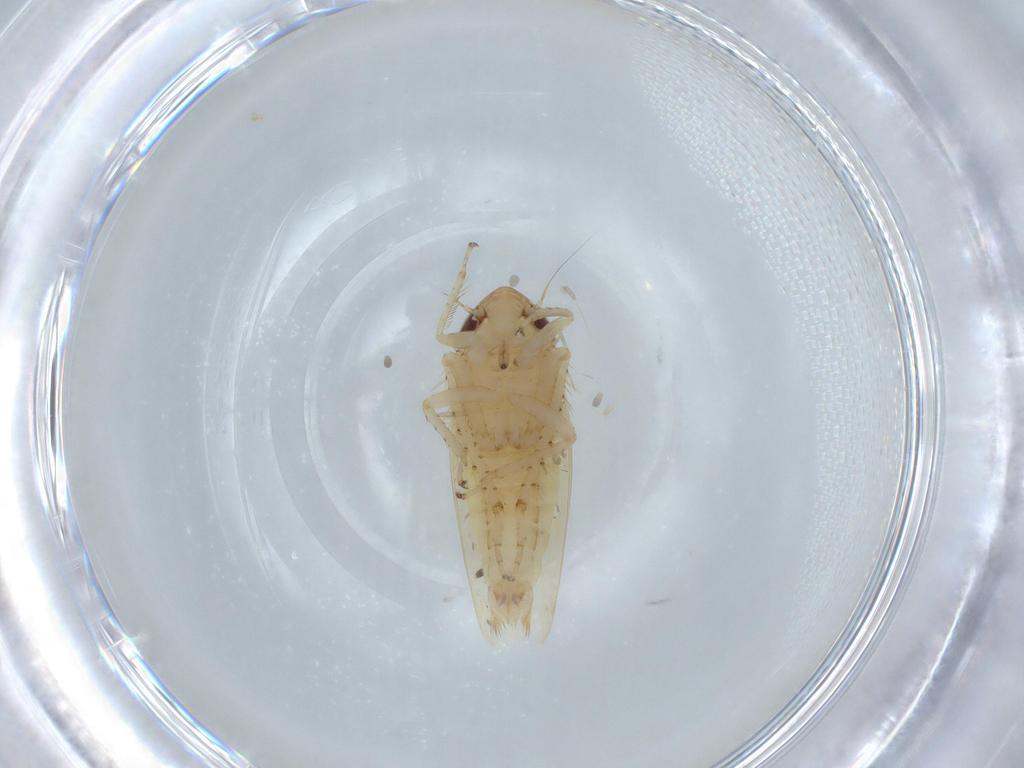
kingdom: Animalia
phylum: Arthropoda
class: Insecta
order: Hemiptera
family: Cicadellidae
